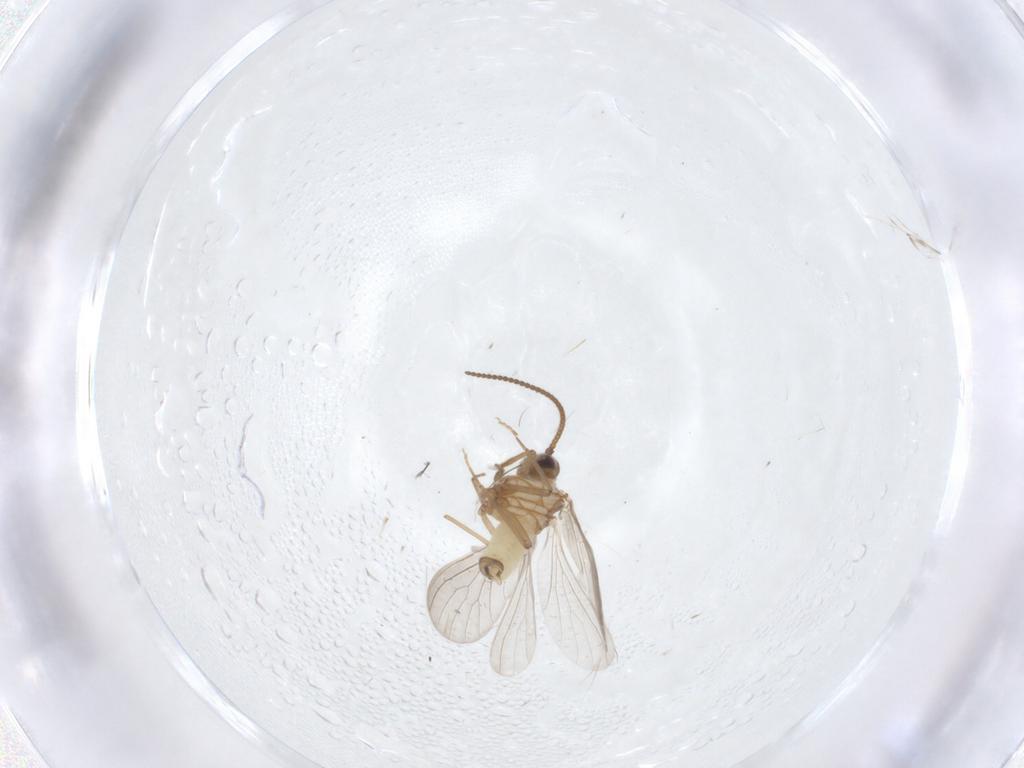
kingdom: Animalia
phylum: Arthropoda
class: Insecta
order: Neuroptera
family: Coniopterygidae
